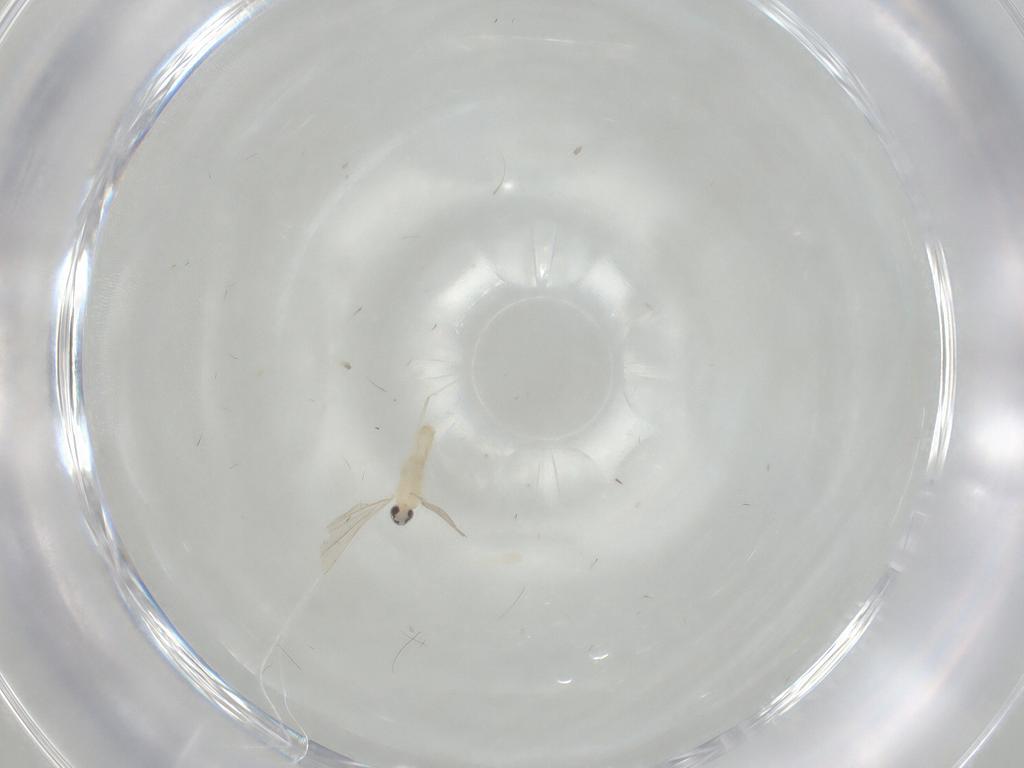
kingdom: Animalia
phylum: Arthropoda
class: Insecta
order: Diptera
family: Cecidomyiidae
